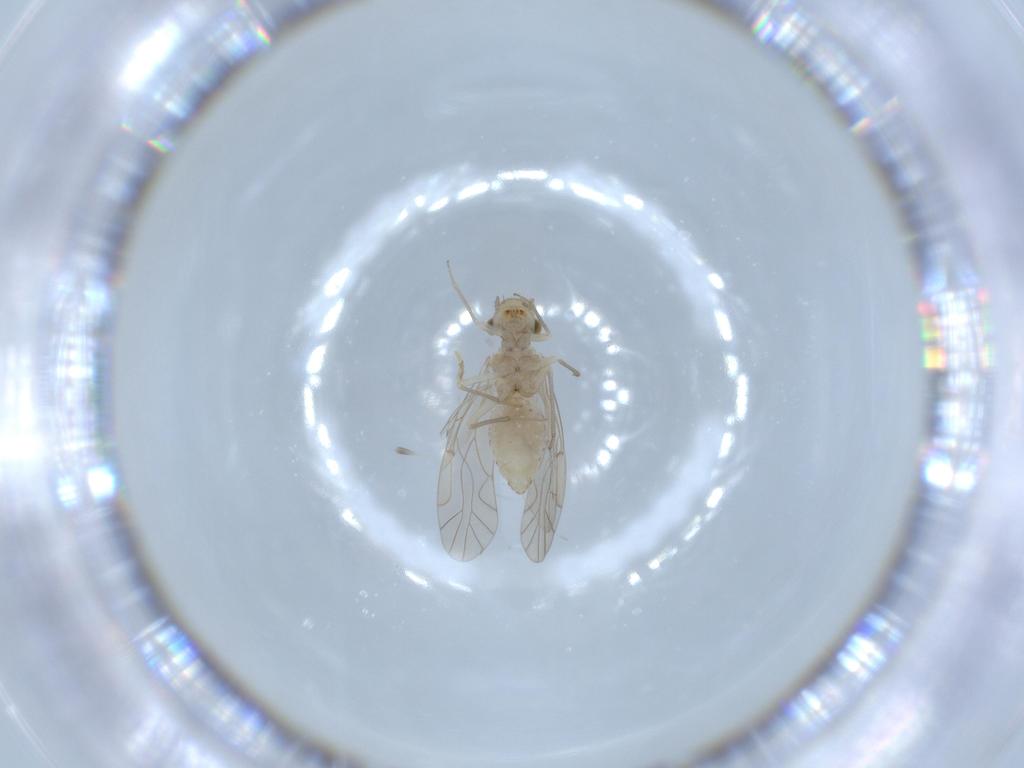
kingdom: Animalia
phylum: Arthropoda
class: Insecta
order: Psocodea
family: Lachesillidae
